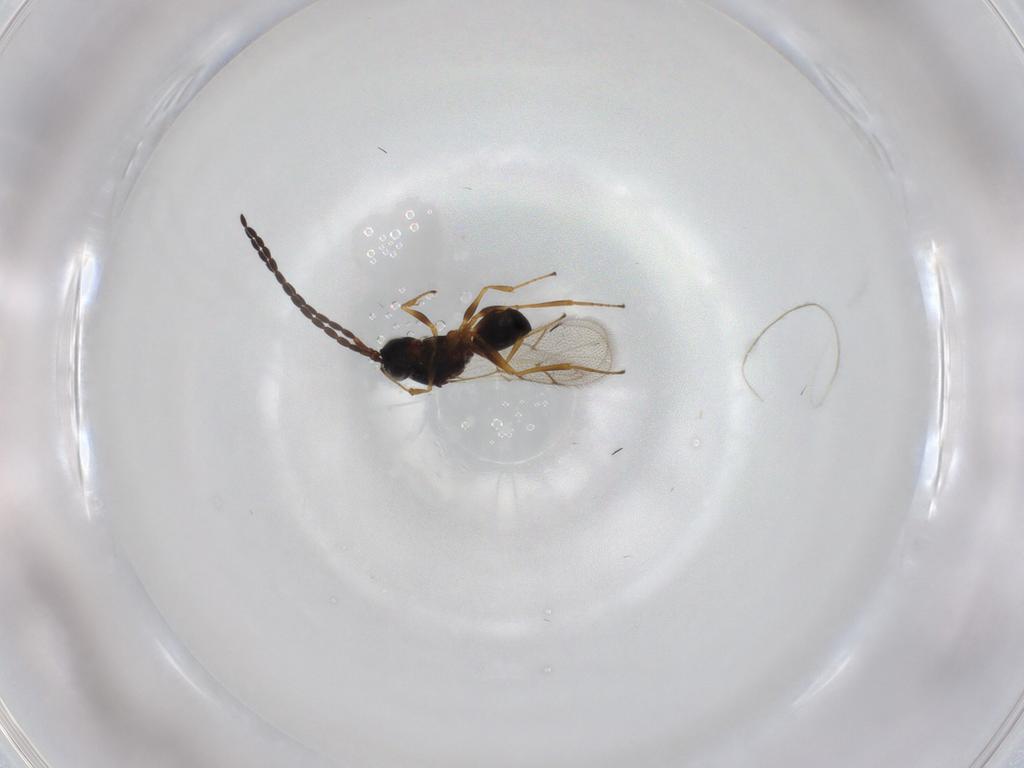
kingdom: Animalia
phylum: Arthropoda
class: Insecta
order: Hymenoptera
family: Figitidae
